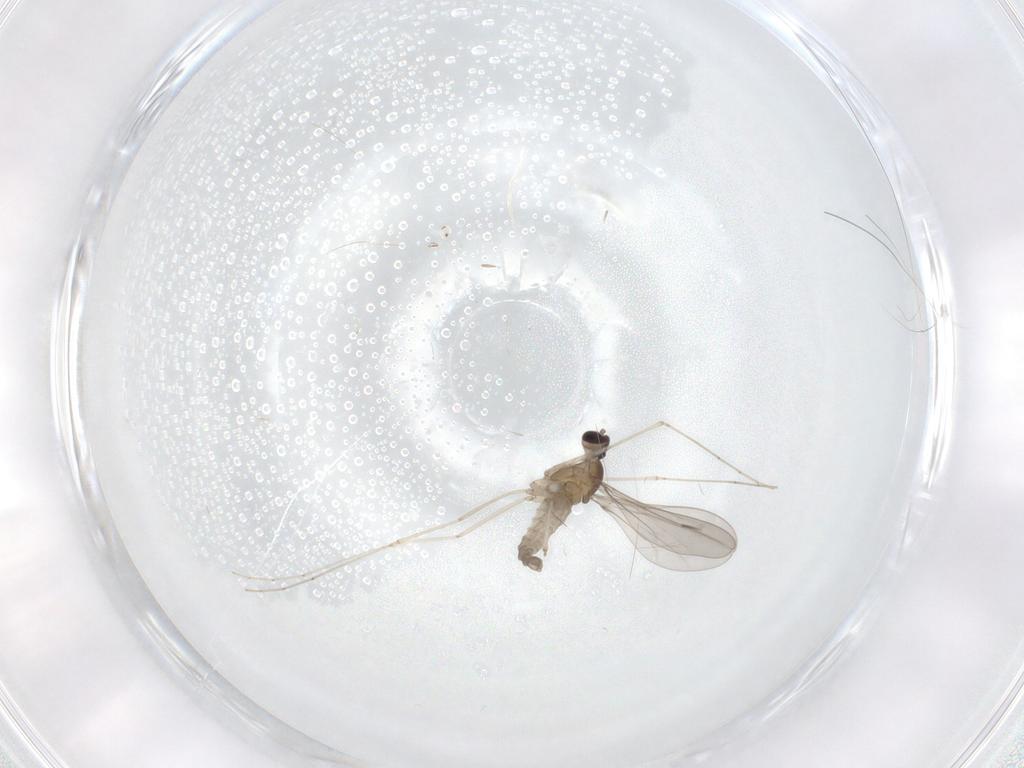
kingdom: Animalia
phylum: Arthropoda
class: Insecta
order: Diptera
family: Cecidomyiidae
